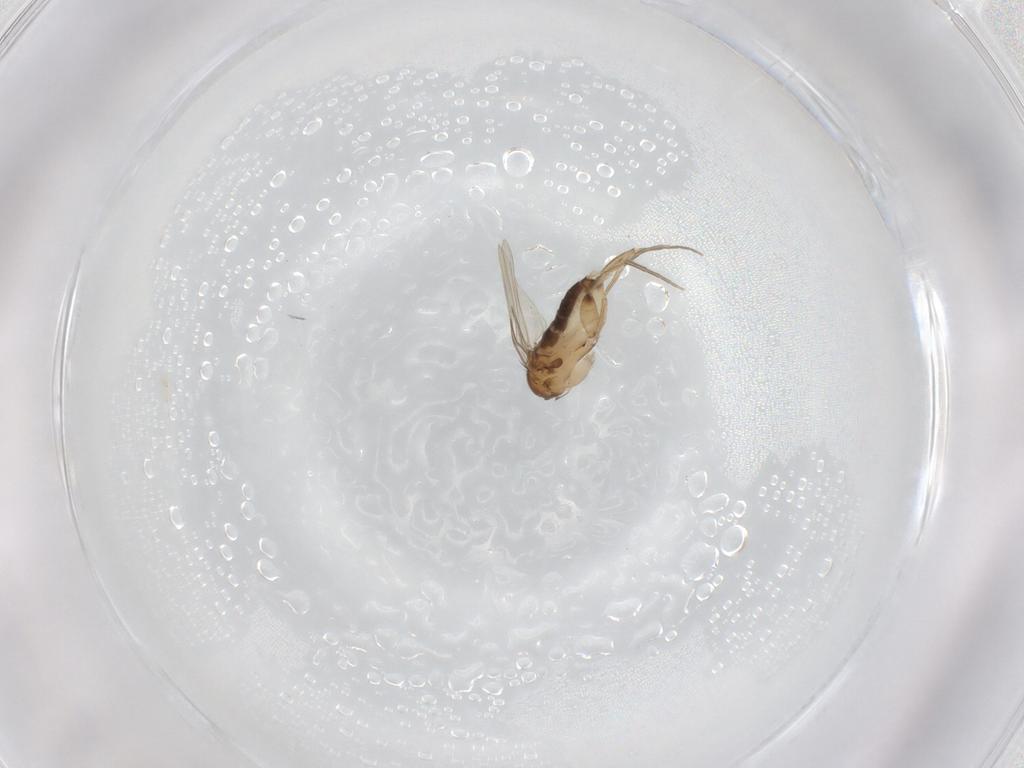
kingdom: Animalia
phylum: Arthropoda
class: Insecta
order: Diptera
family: Phoridae
